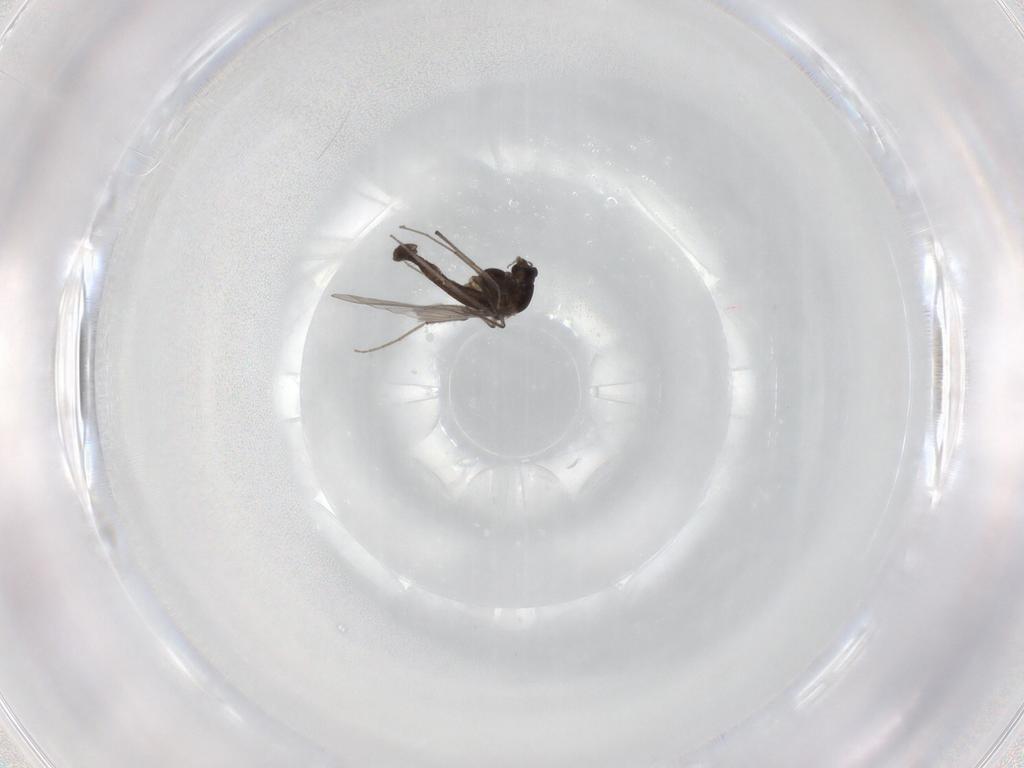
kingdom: Animalia
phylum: Arthropoda
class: Insecta
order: Diptera
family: Chironomidae
